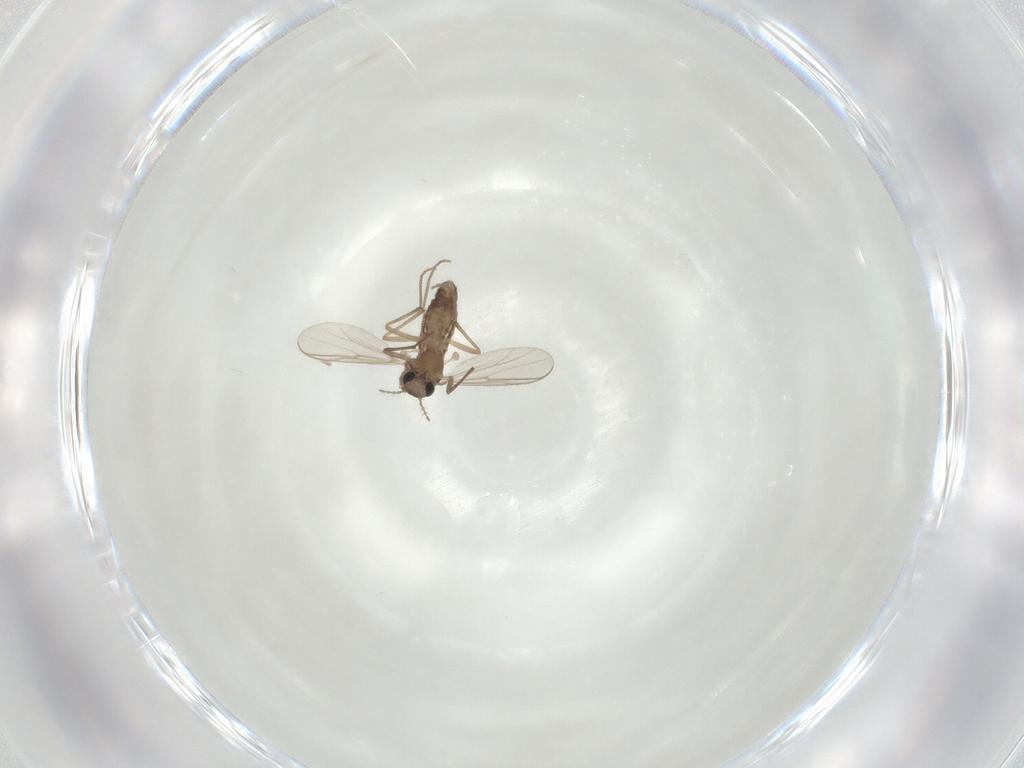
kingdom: Animalia
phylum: Arthropoda
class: Insecta
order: Diptera
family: Chironomidae
